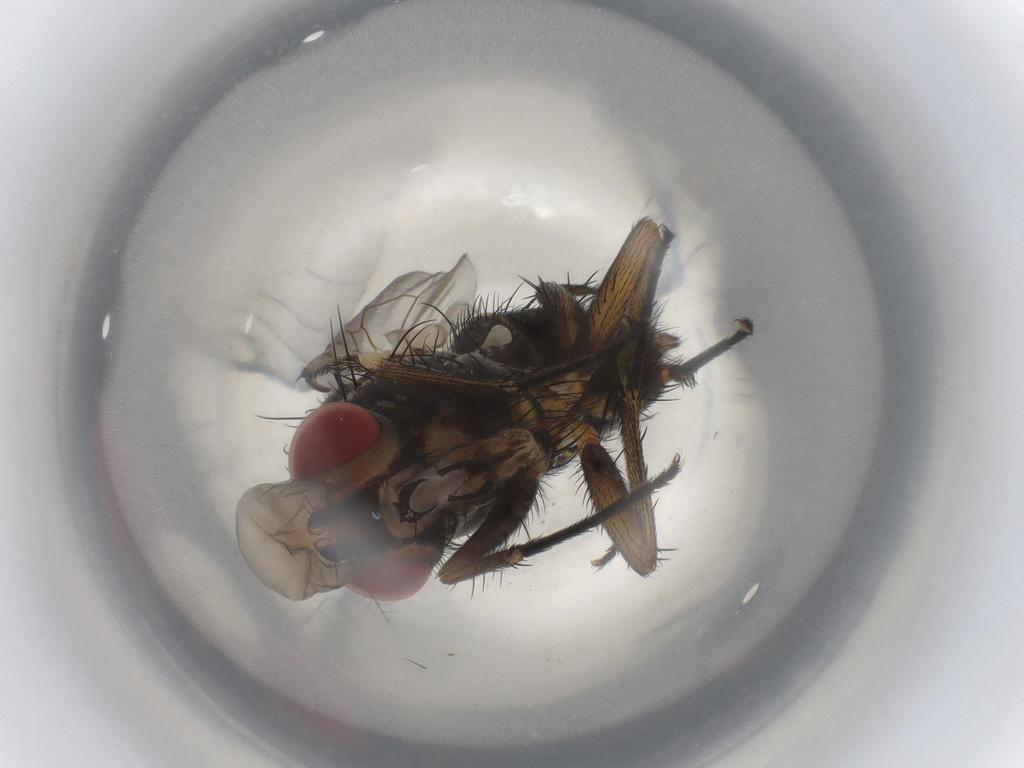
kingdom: Animalia
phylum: Arthropoda
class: Insecta
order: Diptera
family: Muscidae
